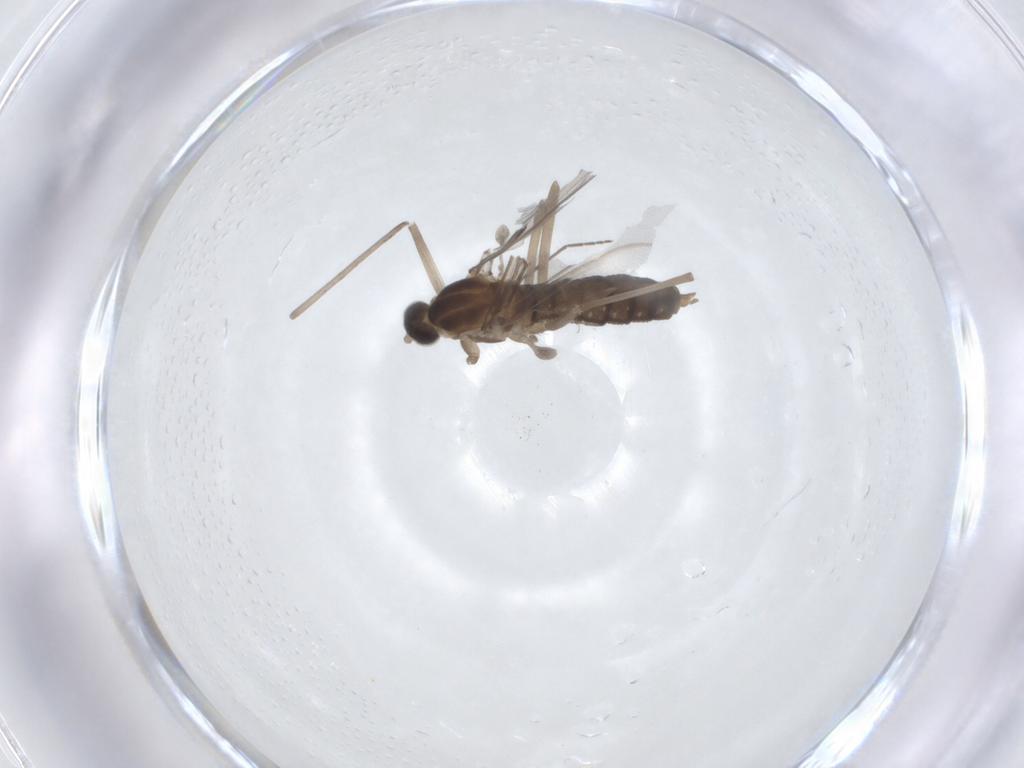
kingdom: Animalia
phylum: Arthropoda
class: Insecta
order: Diptera
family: Cecidomyiidae
